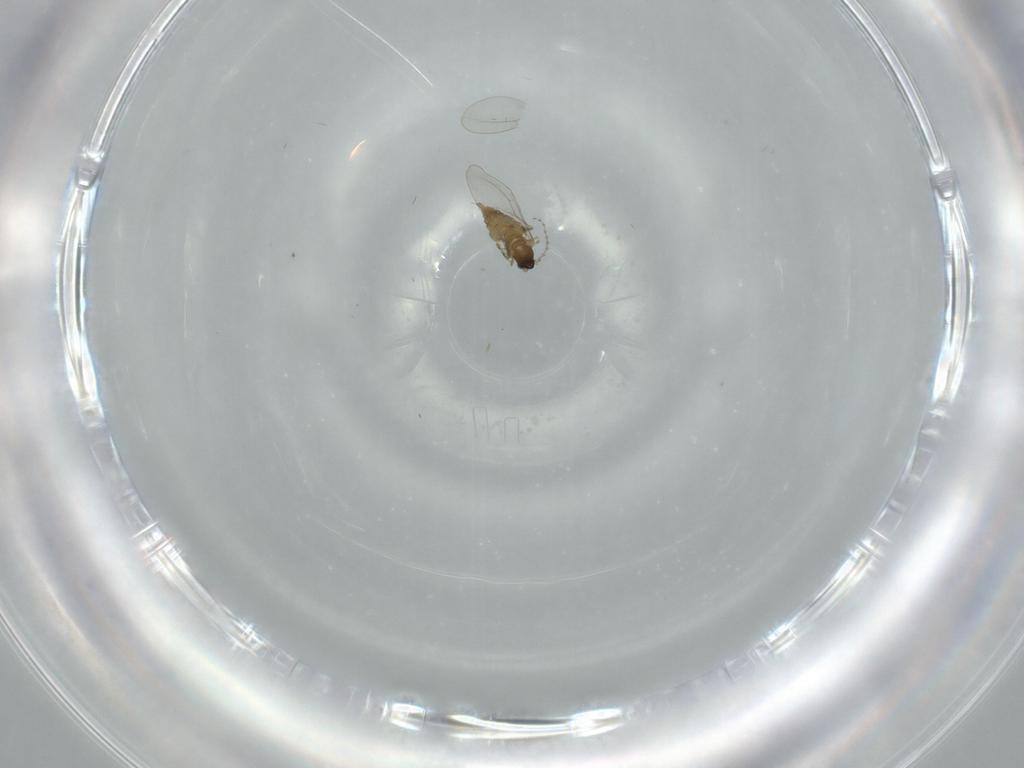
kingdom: Animalia
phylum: Arthropoda
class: Insecta
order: Diptera
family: Cecidomyiidae
